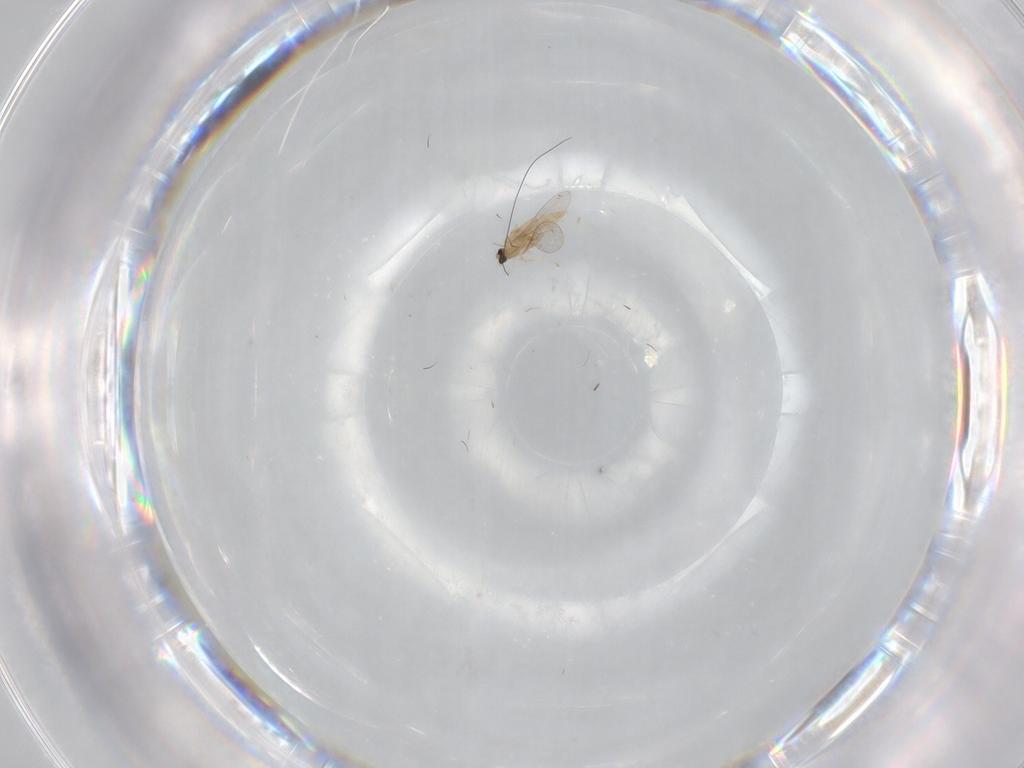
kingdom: Animalia
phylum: Arthropoda
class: Insecta
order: Diptera
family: Cecidomyiidae
